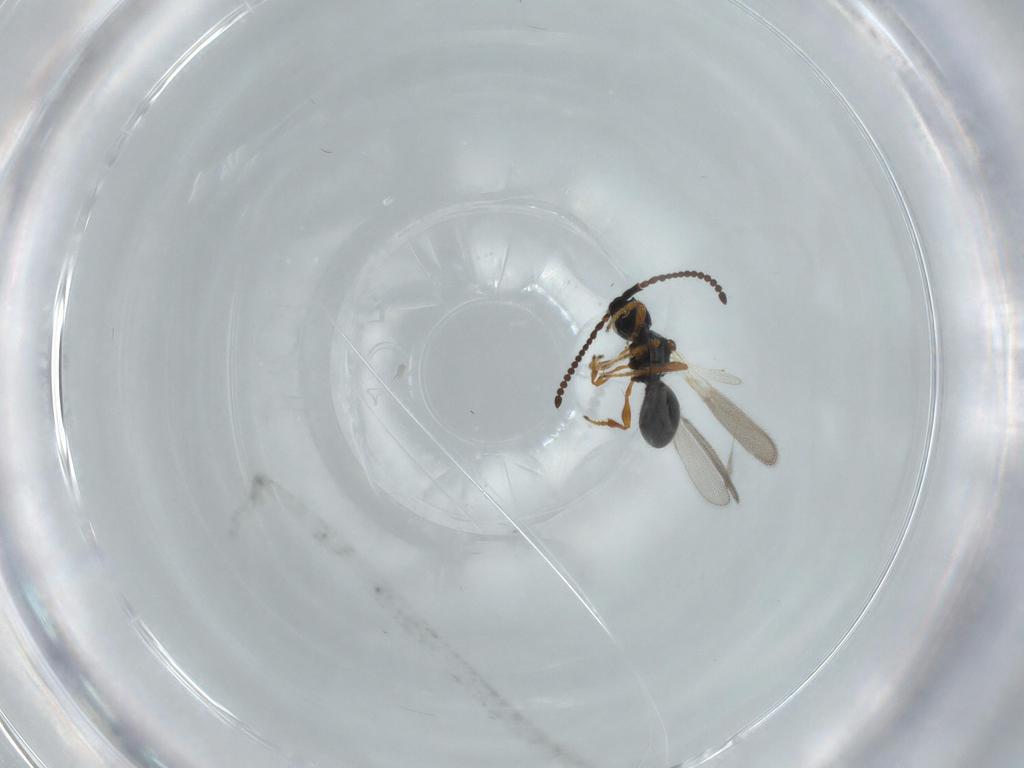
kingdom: Animalia
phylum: Arthropoda
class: Insecta
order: Hymenoptera
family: Diapriidae
